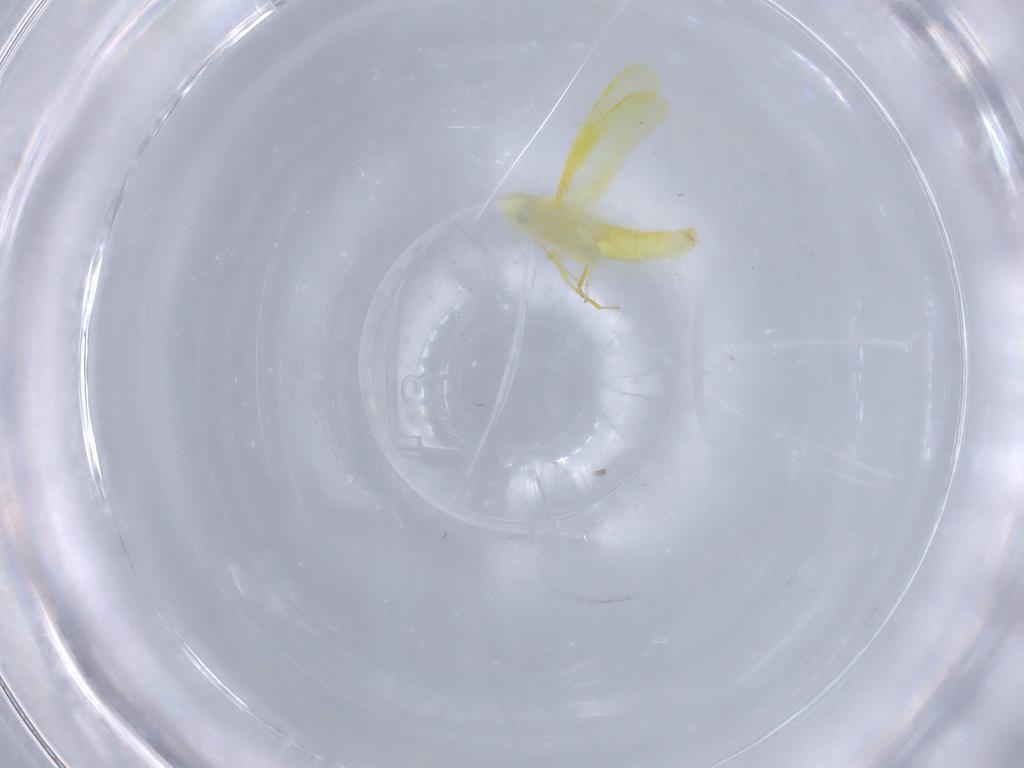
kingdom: Animalia
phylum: Arthropoda
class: Insecta
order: Hemiptera
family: Cicadellidae
